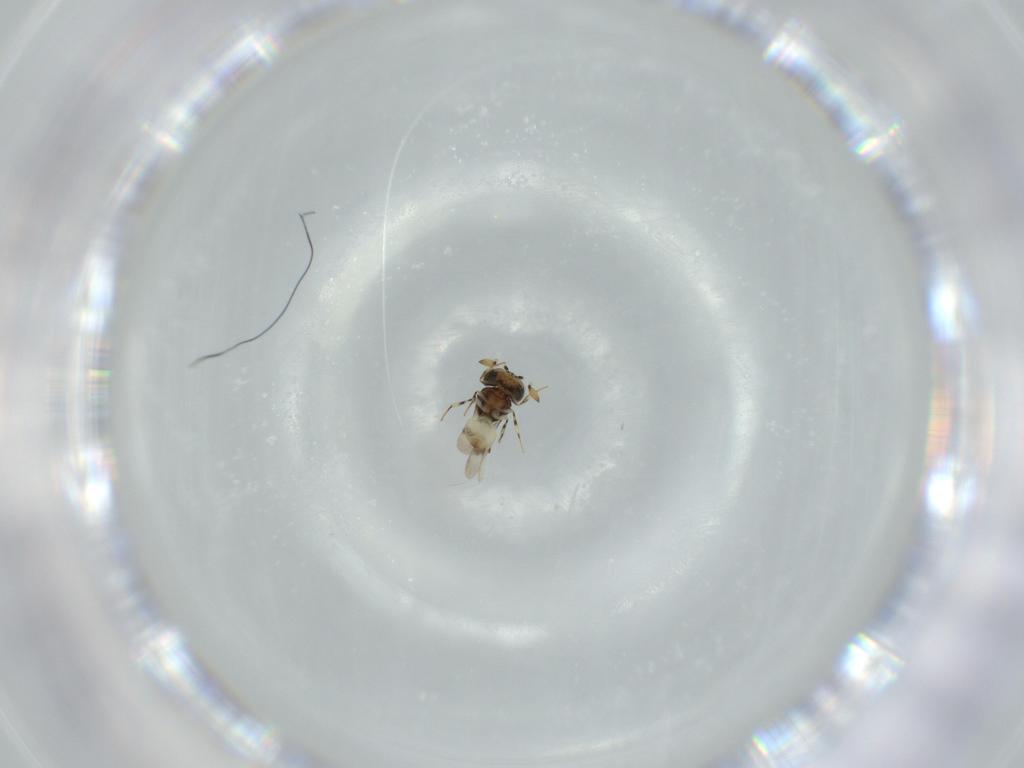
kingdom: Animalia
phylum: Arthropoda
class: Insecta
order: Hymenoptera
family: Scelionidae
